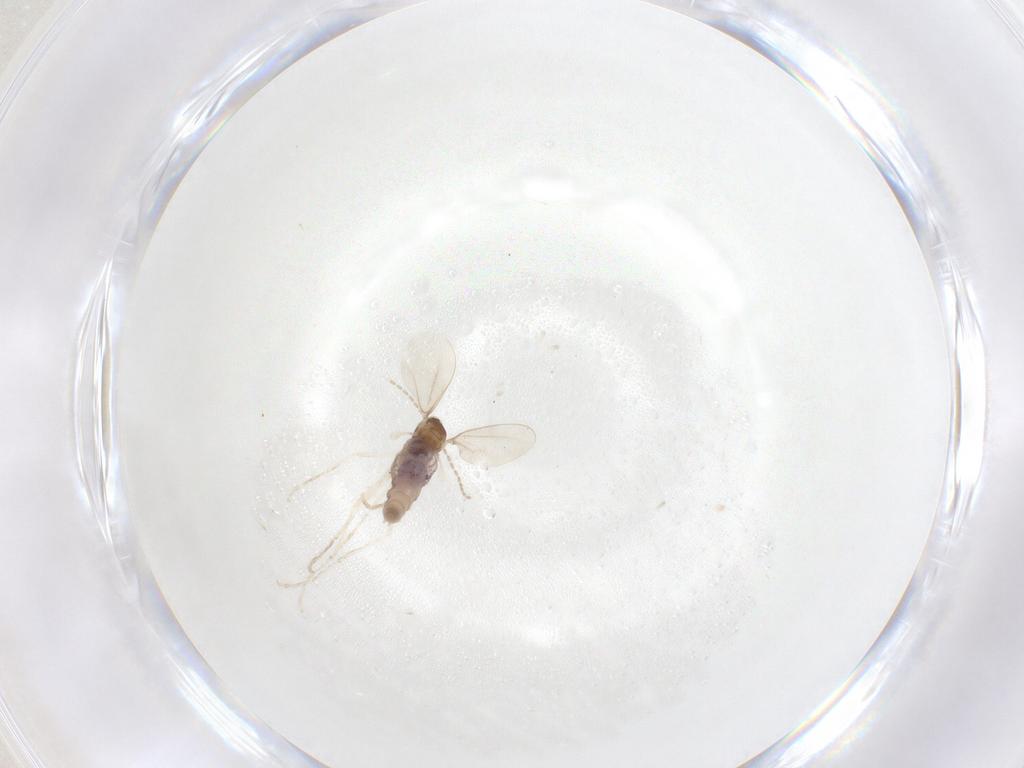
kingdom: Animalia
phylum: Arthropoda
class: Insecta
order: Diptera
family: Cecidomyiidae
